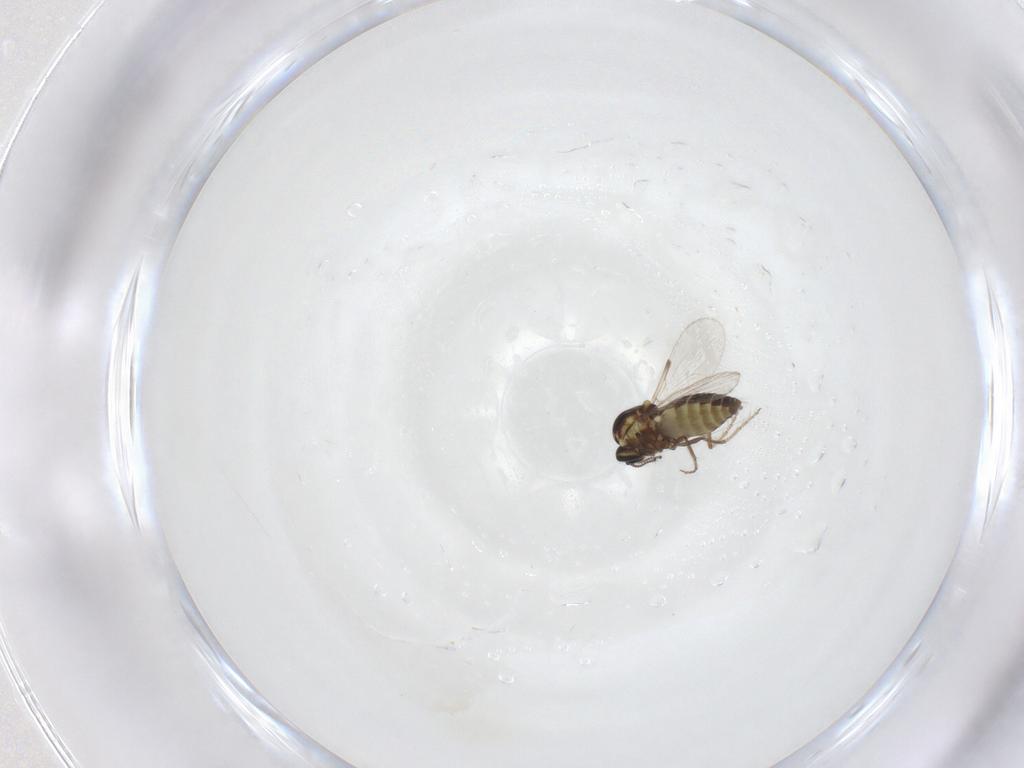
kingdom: Animalia
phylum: Arthropoda
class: Insecta
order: Diptera
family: Ceratopogonidae
